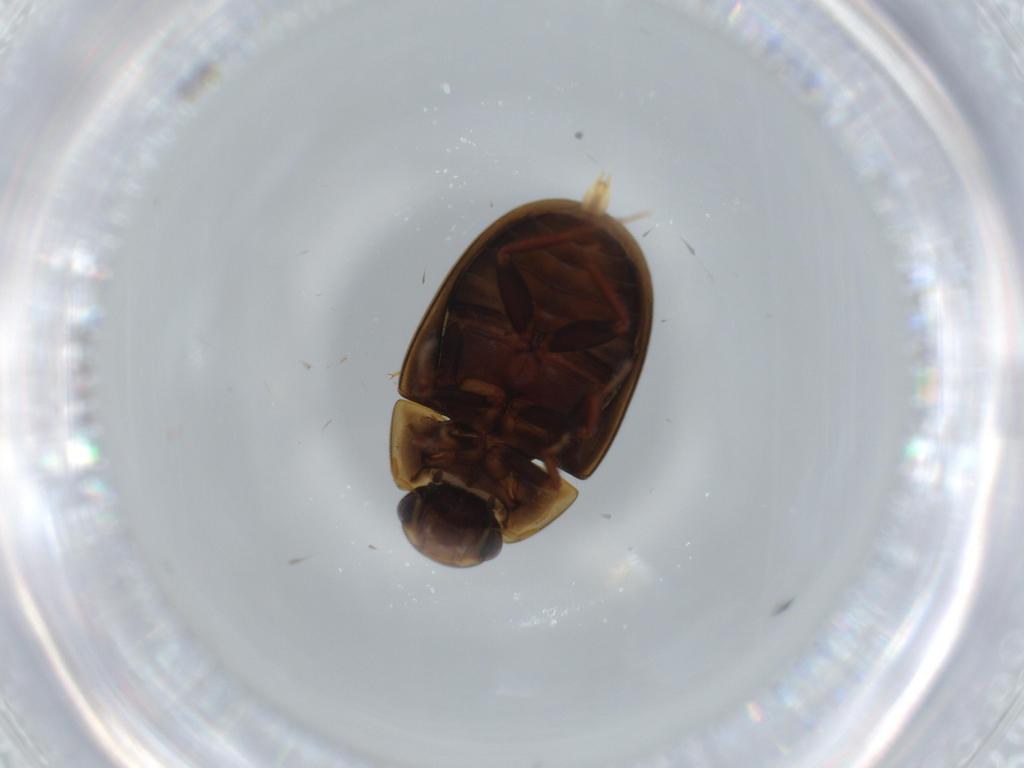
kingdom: Animalia
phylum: Arthropoda
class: Insecta
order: Coleoptera
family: Chrysomelidae
